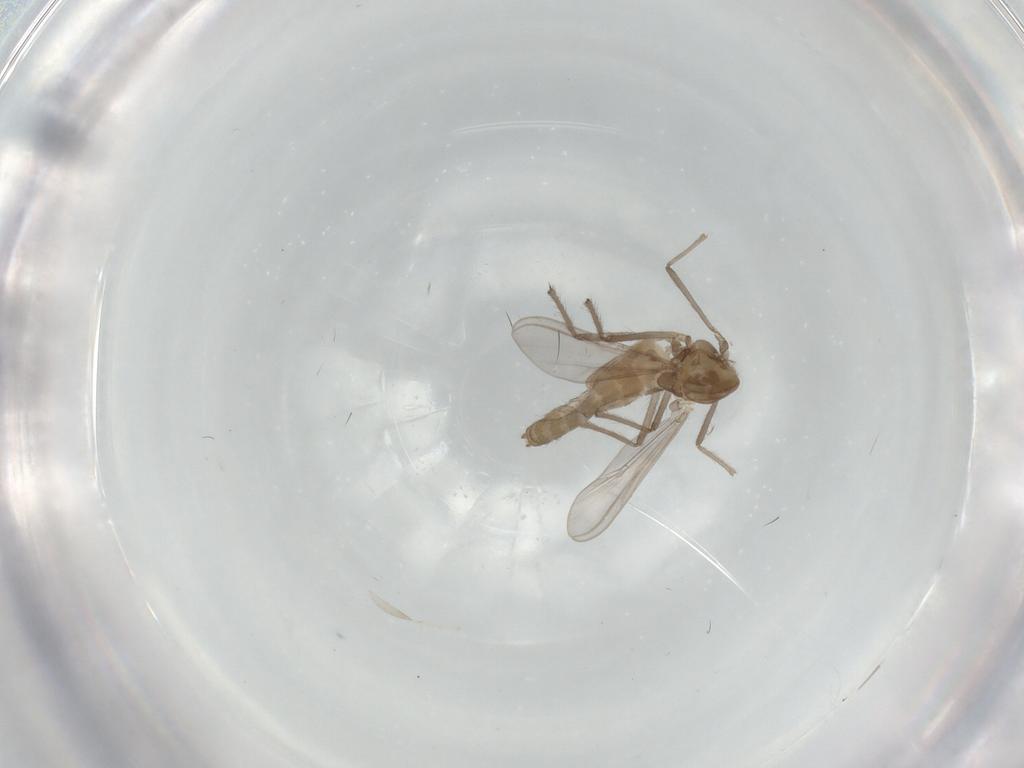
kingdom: Animalia
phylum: Arthropoda
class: Insecta
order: Diptera
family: Chironomidae
